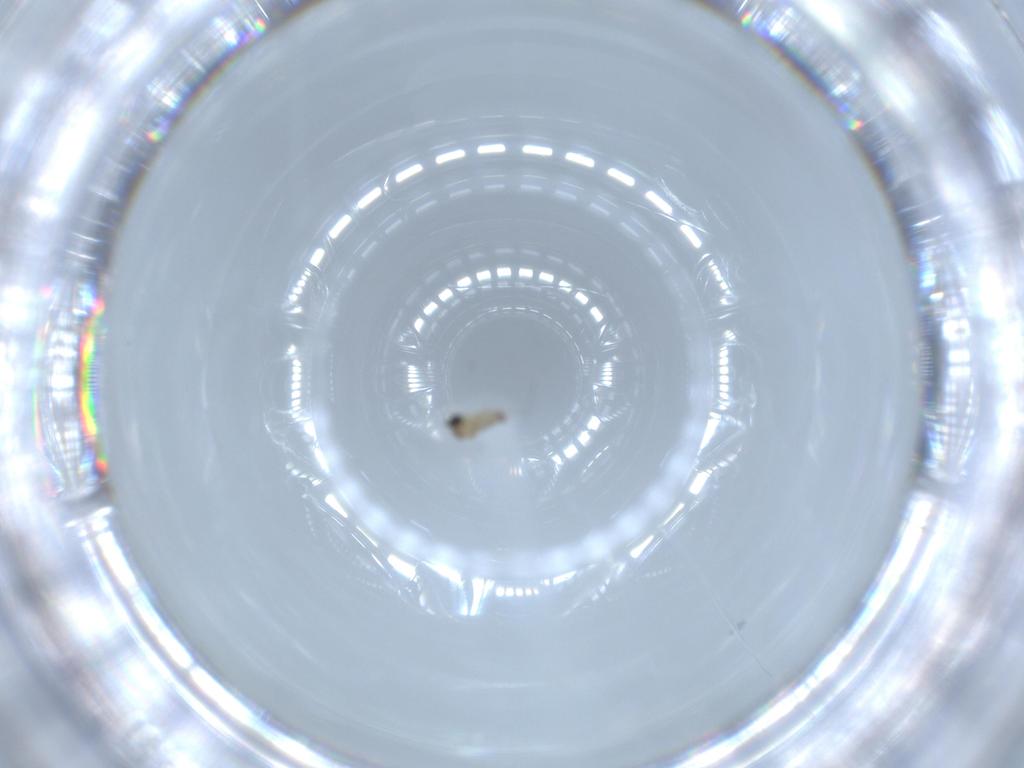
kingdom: Animalia
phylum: Arthropoda
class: Insecta
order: Diptera
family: Cecidomyiidae
